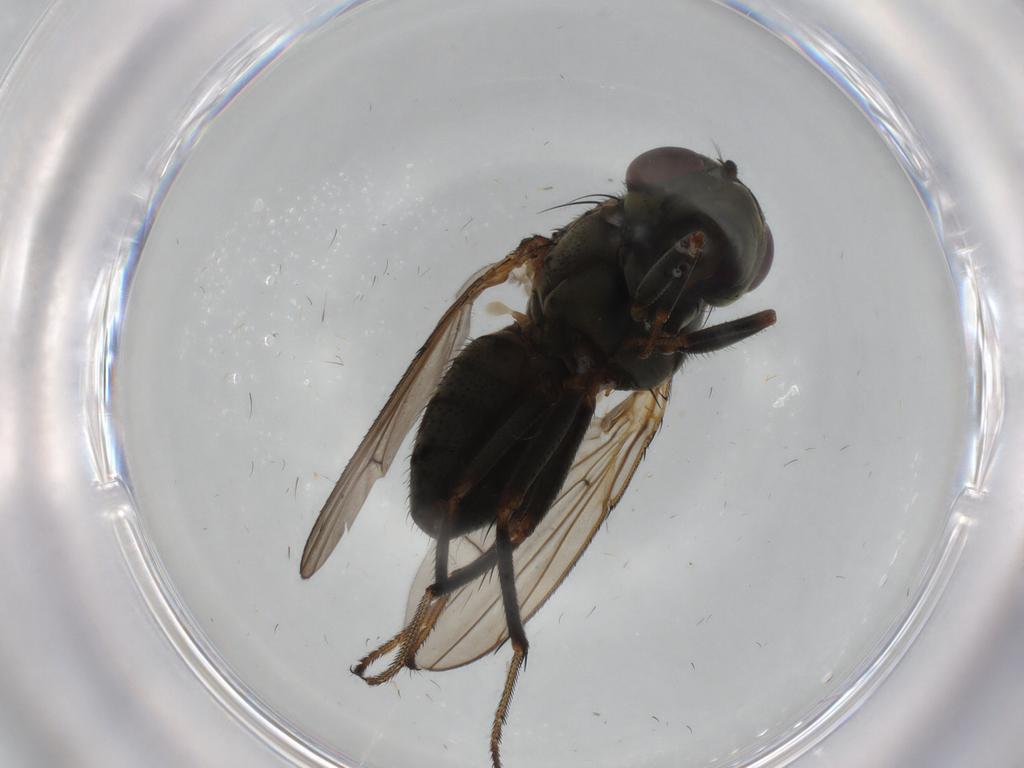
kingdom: Animalia
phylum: Arthropoda
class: Insecta
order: Diptera
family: Ephydridae
